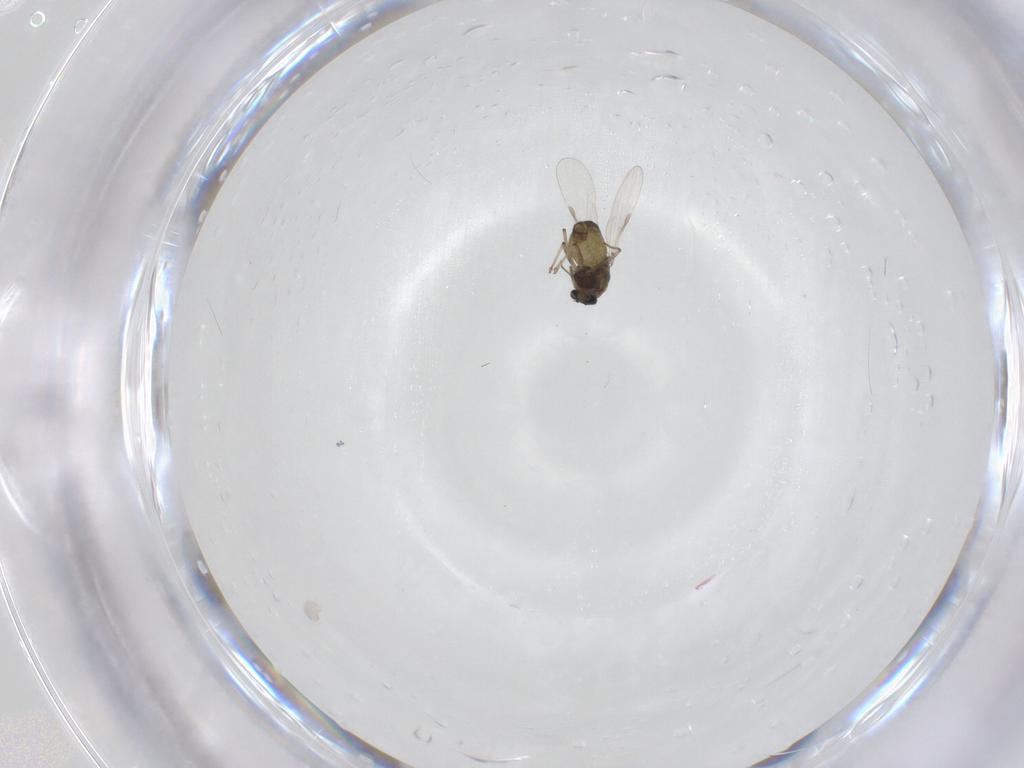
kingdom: Animalia
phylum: Arthropoda
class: Insecta
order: Diptera
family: Chironomidae
